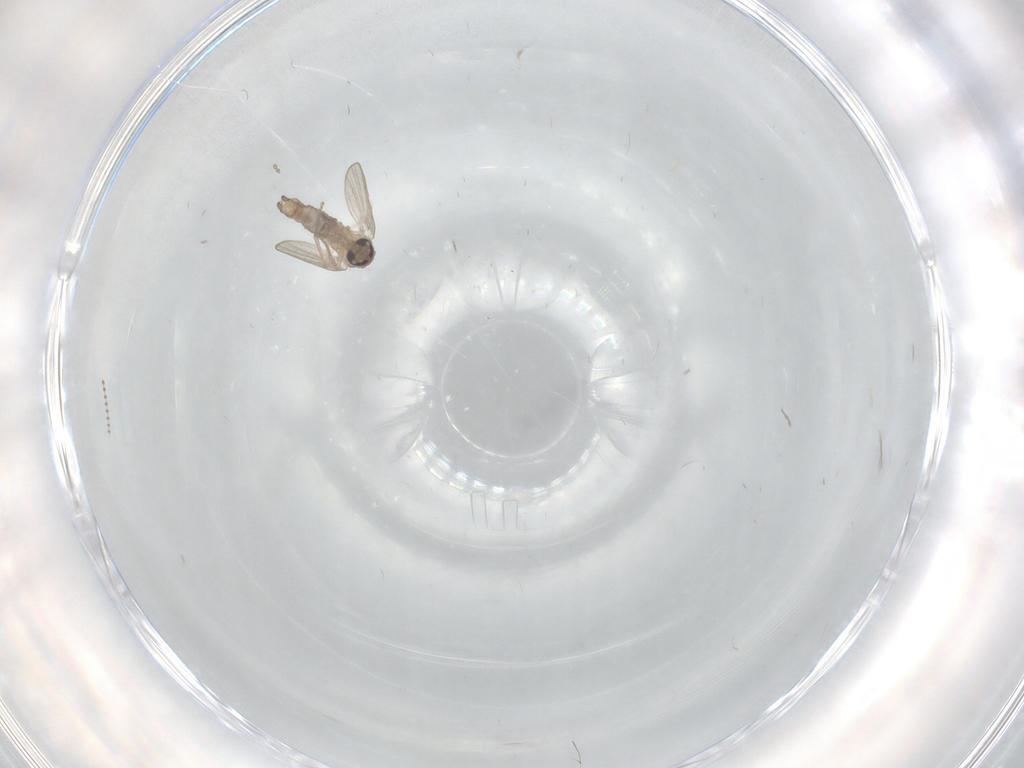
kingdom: Animalia
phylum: Arthropoda
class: Insecta
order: Diptera
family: Psychodidae
